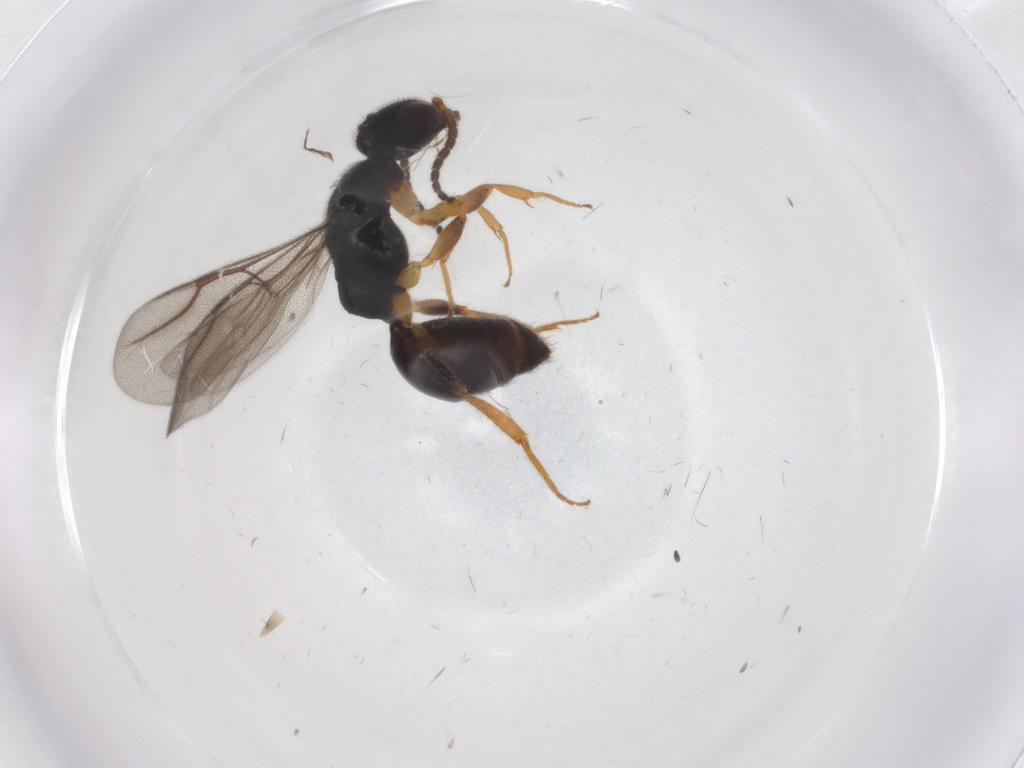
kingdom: Animalia
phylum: Arthropoda
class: Insecta
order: Hymenoptera
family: Bethylidae
